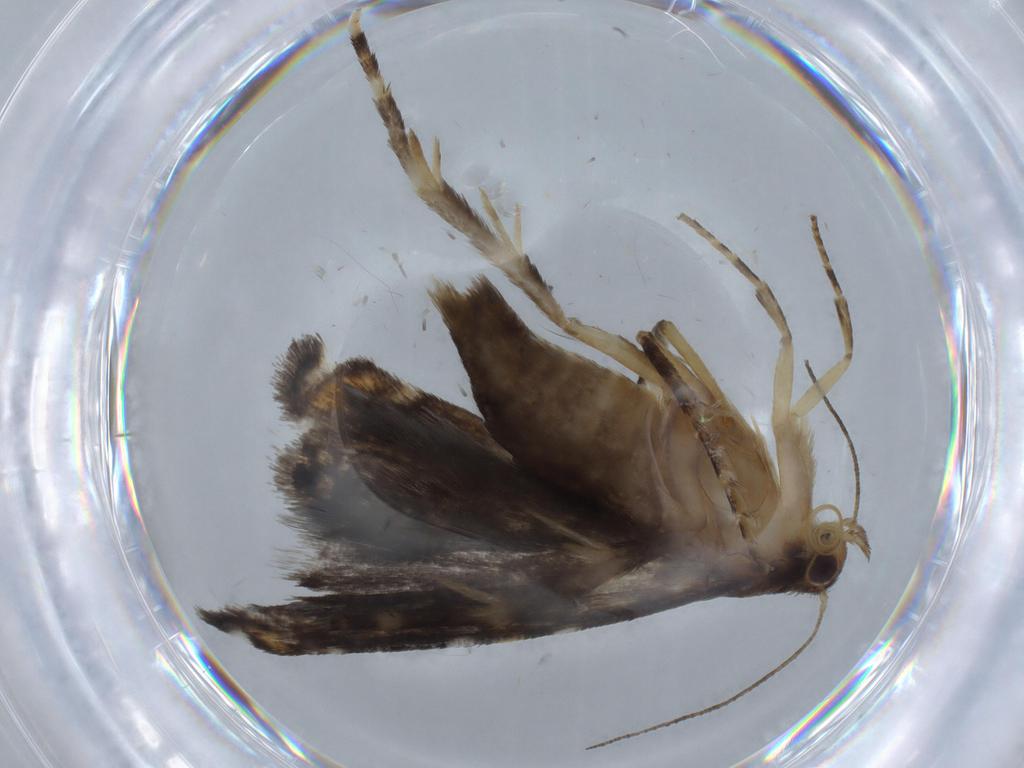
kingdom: Animalia
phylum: Arthropoda
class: Insecta
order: Lepidoptera
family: Glyphipterigidae
